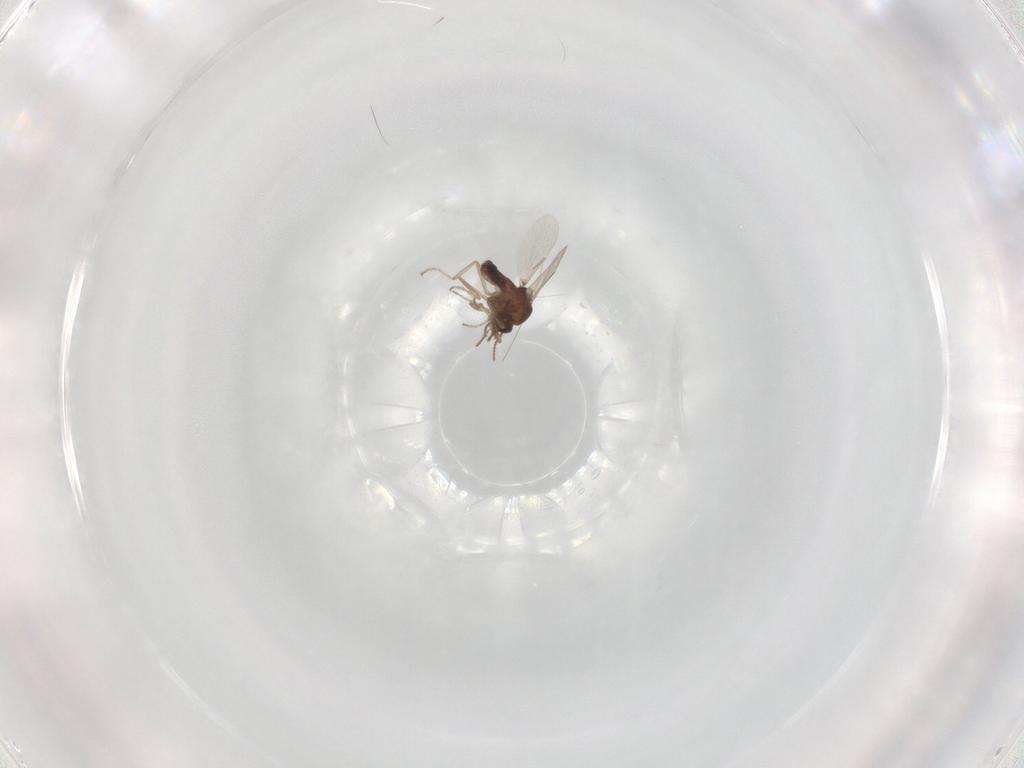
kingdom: Animalia
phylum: Arthropoda
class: Insecta
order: Diptera
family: Ceratopogonidae
